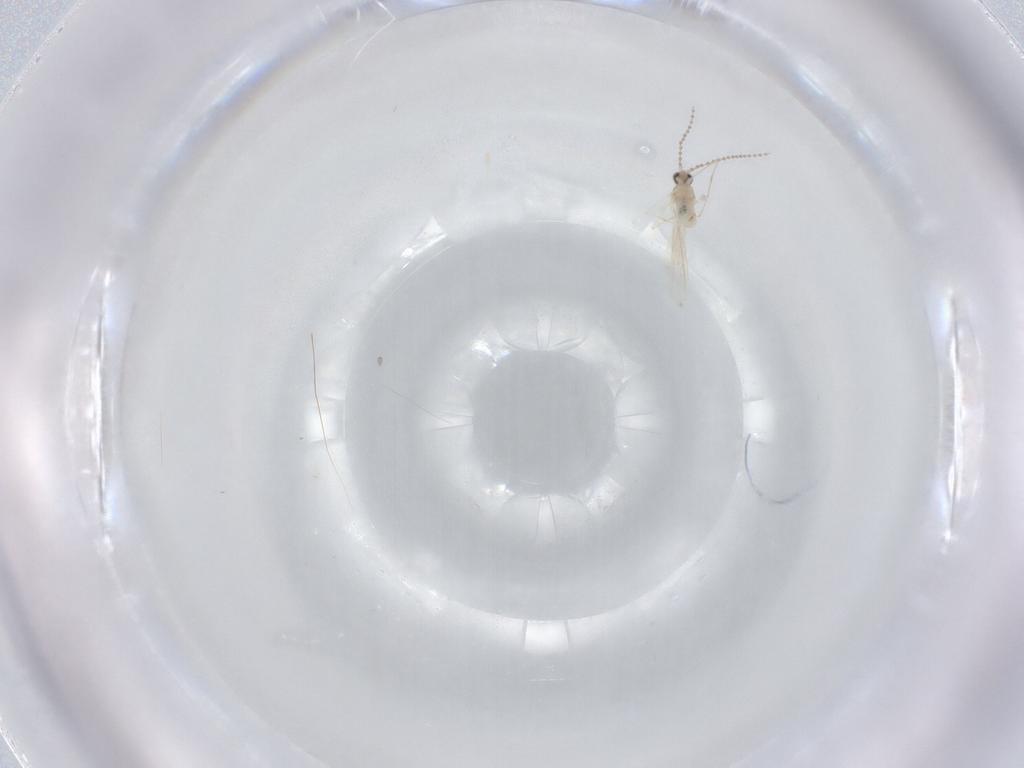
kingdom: Animalia
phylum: Arthropoda
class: Insecta
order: Diptera
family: Cecidomyiidae
